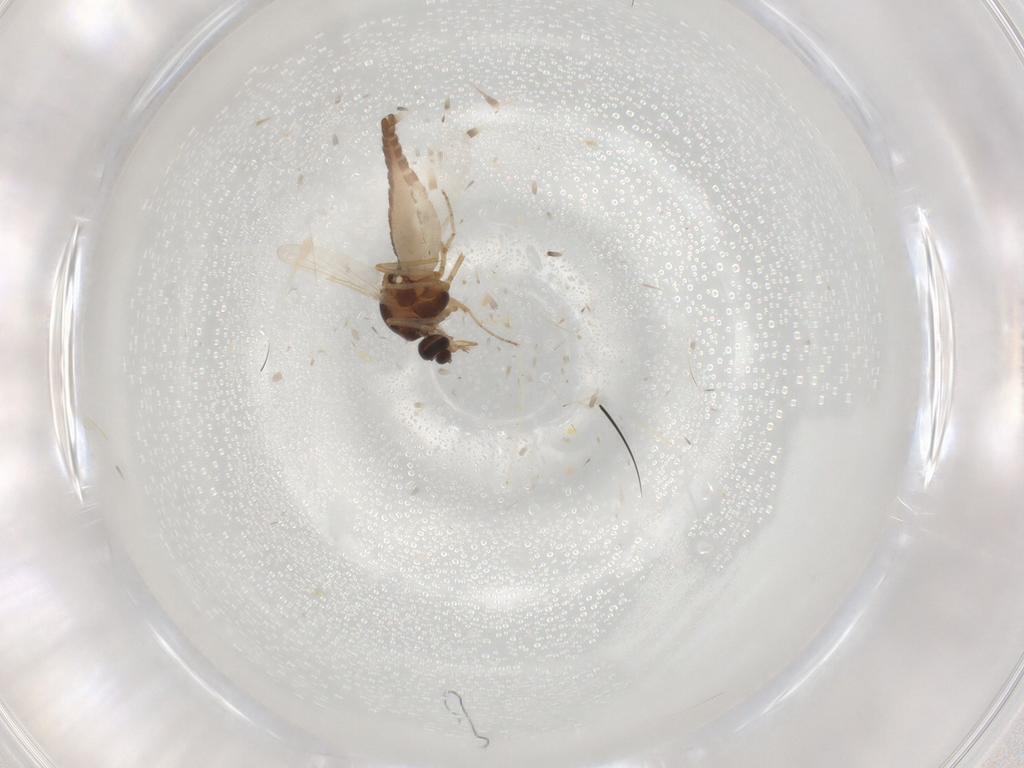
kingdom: Animalia
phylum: Arthropoda
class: Insecta
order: Diptera
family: Ceratopogonidae
